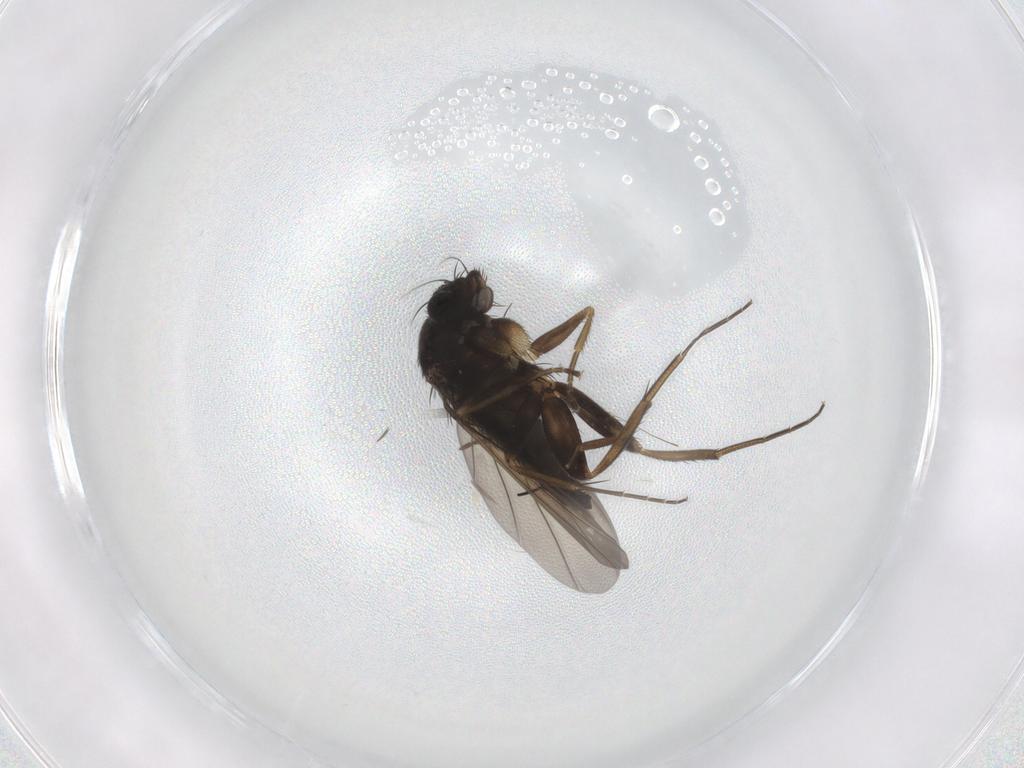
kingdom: Animalia
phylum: Arthropoda
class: Insecta
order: Diptera
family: Phoridae
